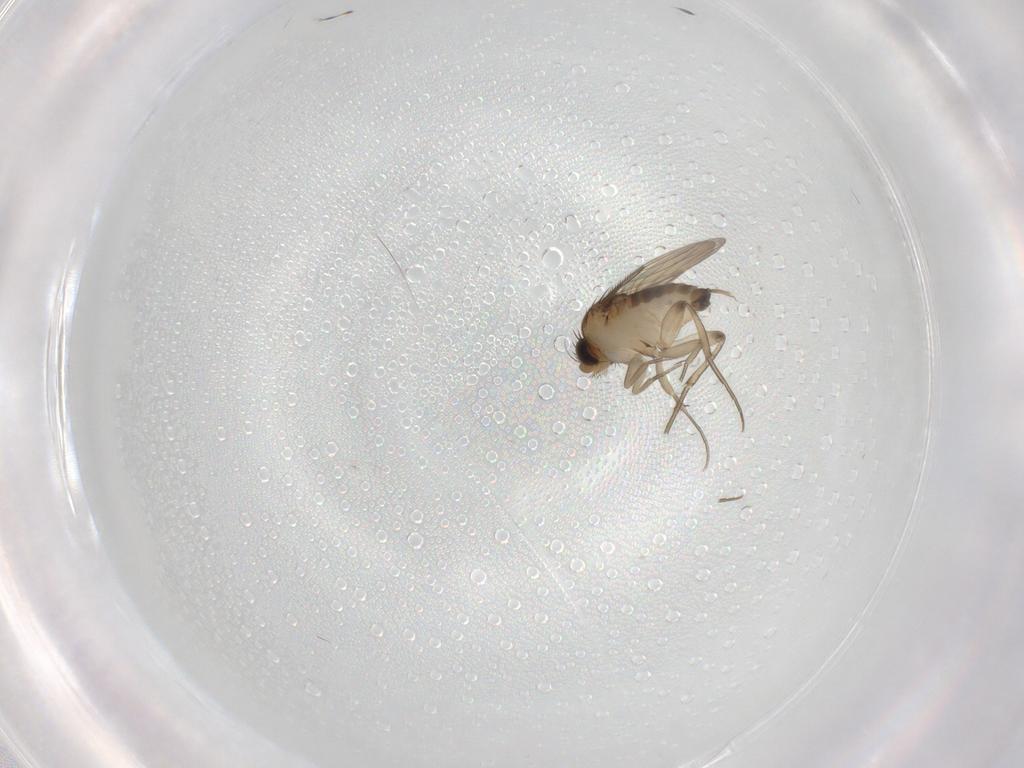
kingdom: Animalia
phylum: Arthropoda
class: Insecta
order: Diptera
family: Phoridae
